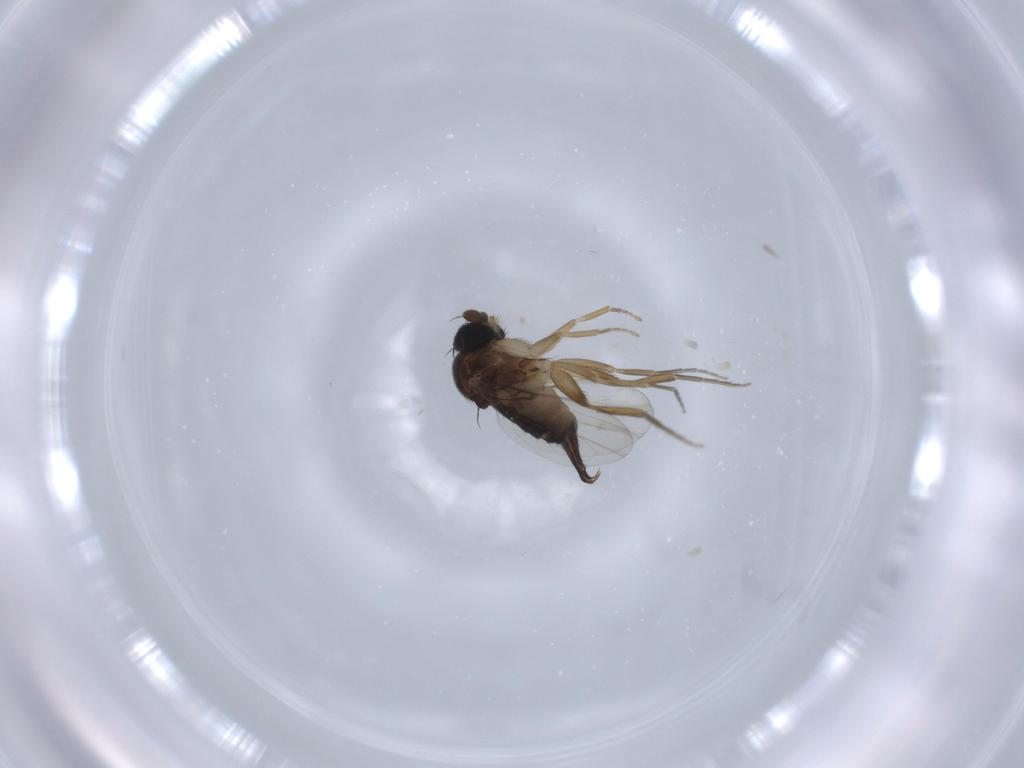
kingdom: Animalia
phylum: Arthropoda
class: Insecta
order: Diptera
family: Phoridae
